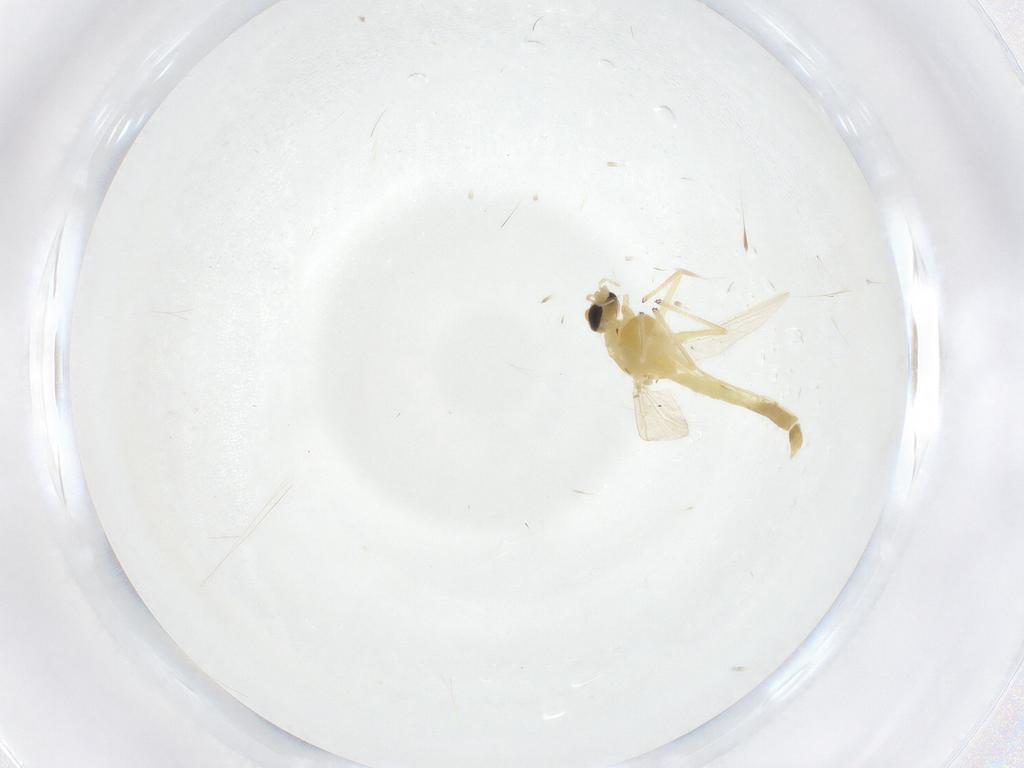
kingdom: Animalia
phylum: Arthropoda
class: Insecta
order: Diptera
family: Chironomidae
